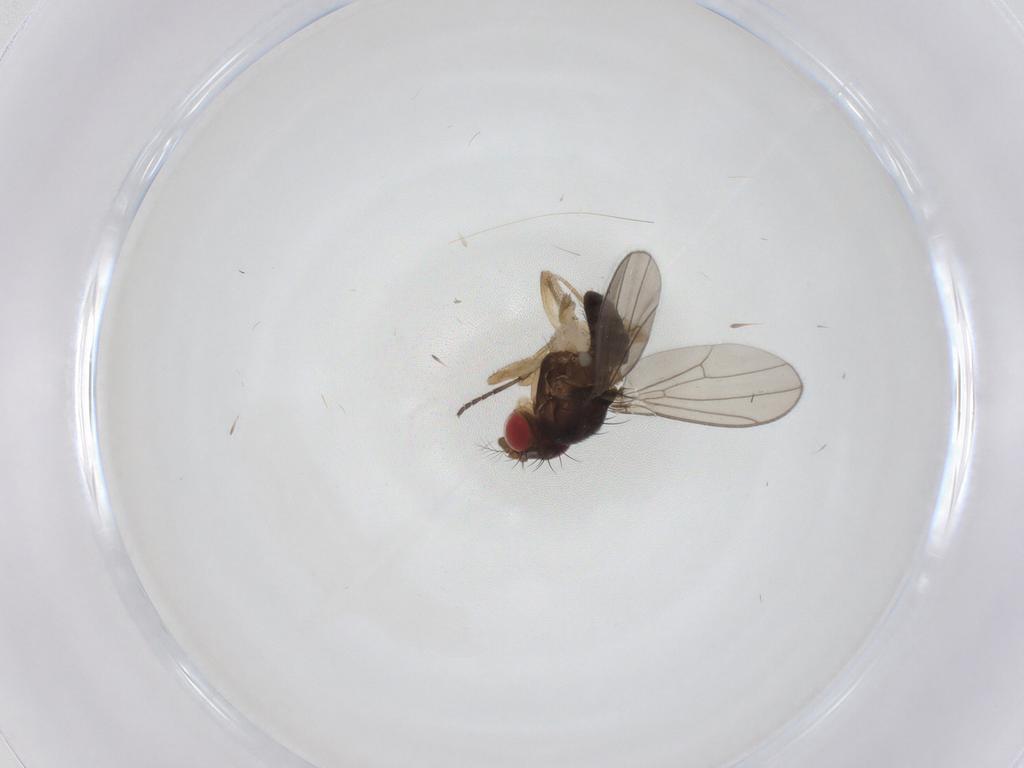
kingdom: Animalia
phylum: Arthropoda
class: Insecta
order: Diptera
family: Drosophilidae
